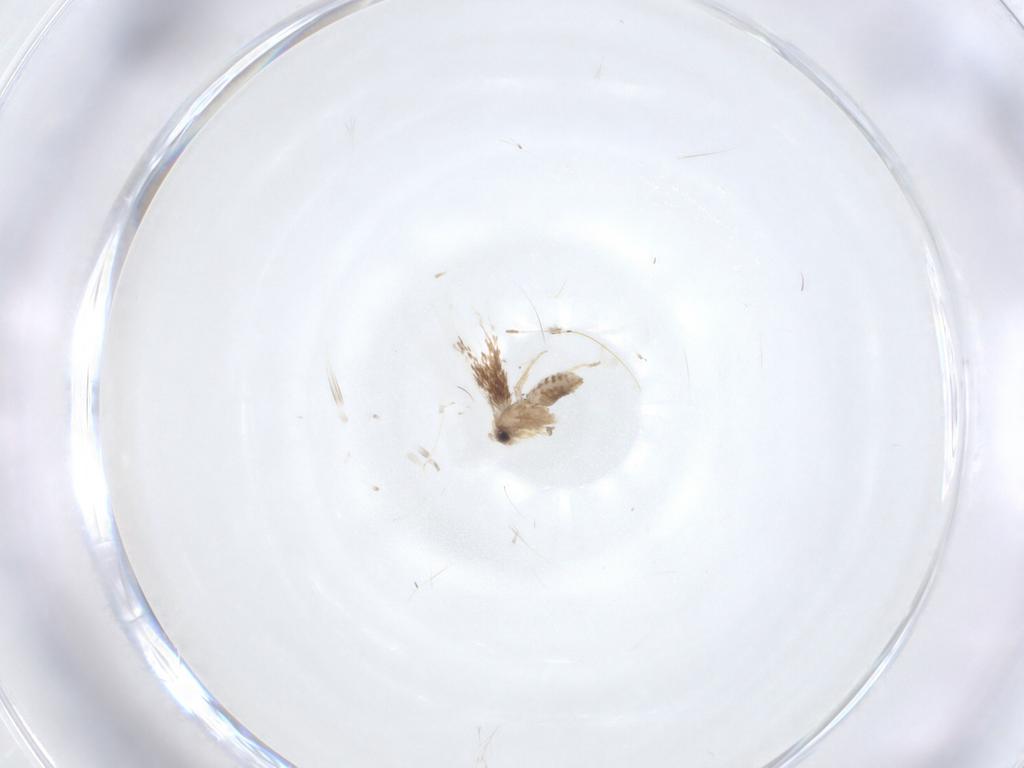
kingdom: Animalia
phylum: Arthropoda
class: Insecta
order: Lepidoptera
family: Nepticulidae
